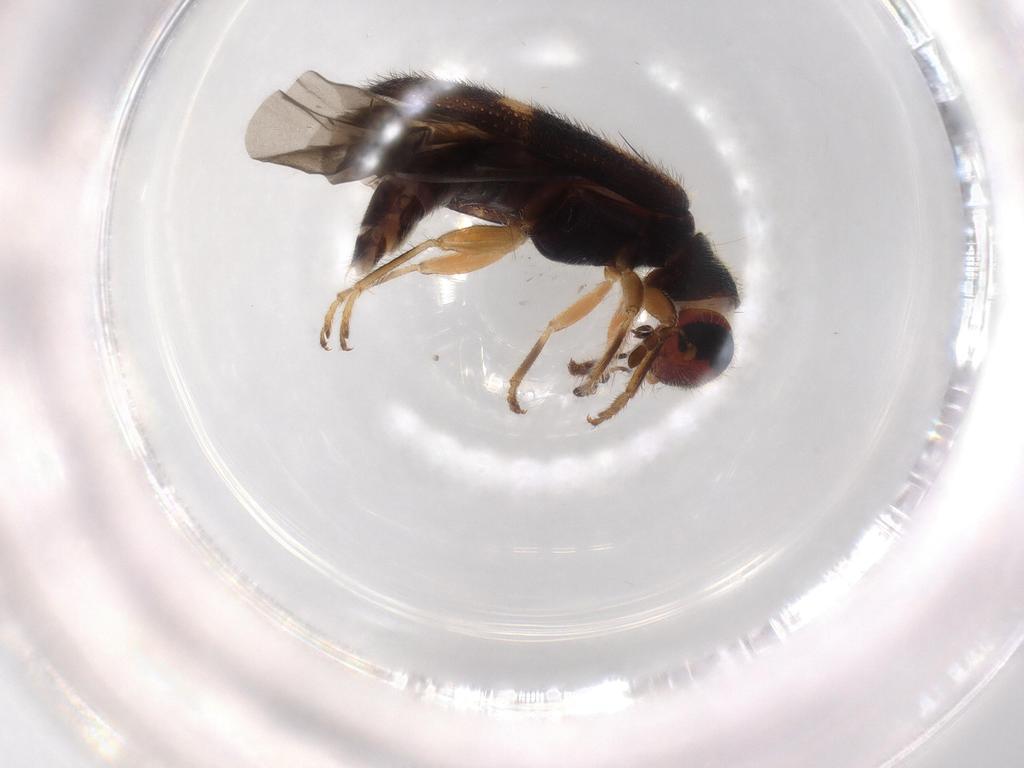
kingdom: Animalia
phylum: Arthropoda
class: Insecta
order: Coleoptera
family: Cleridae
